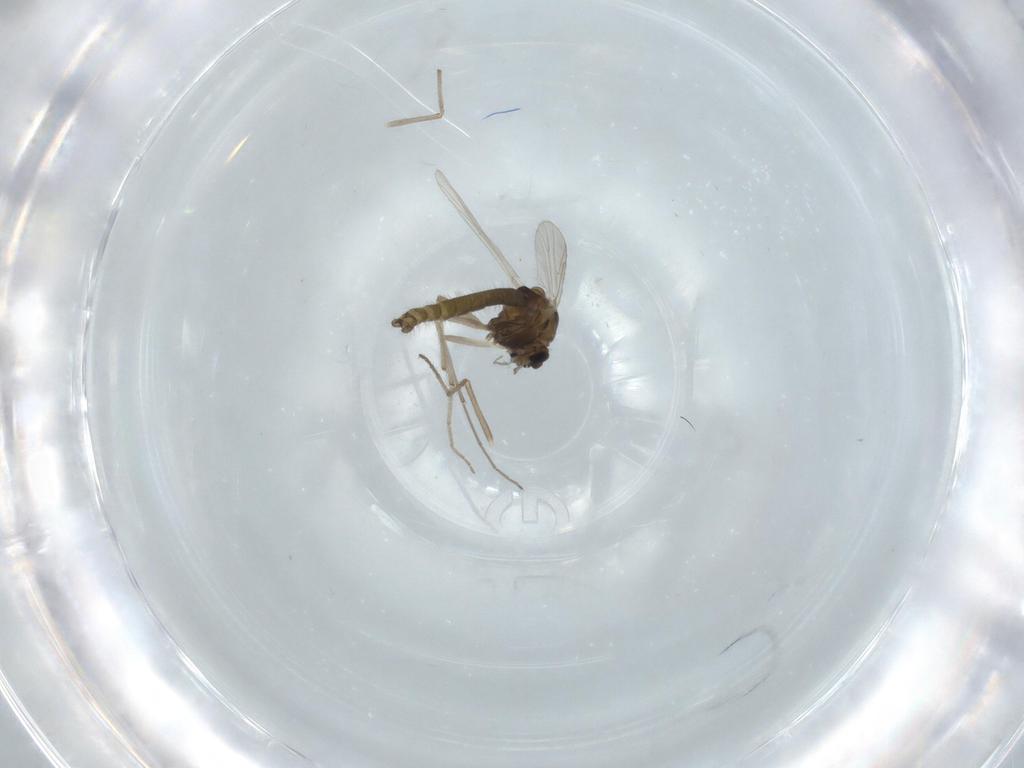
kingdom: Animalia
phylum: Arthropoda
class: Insecta
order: Diptera
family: Chironomidae
